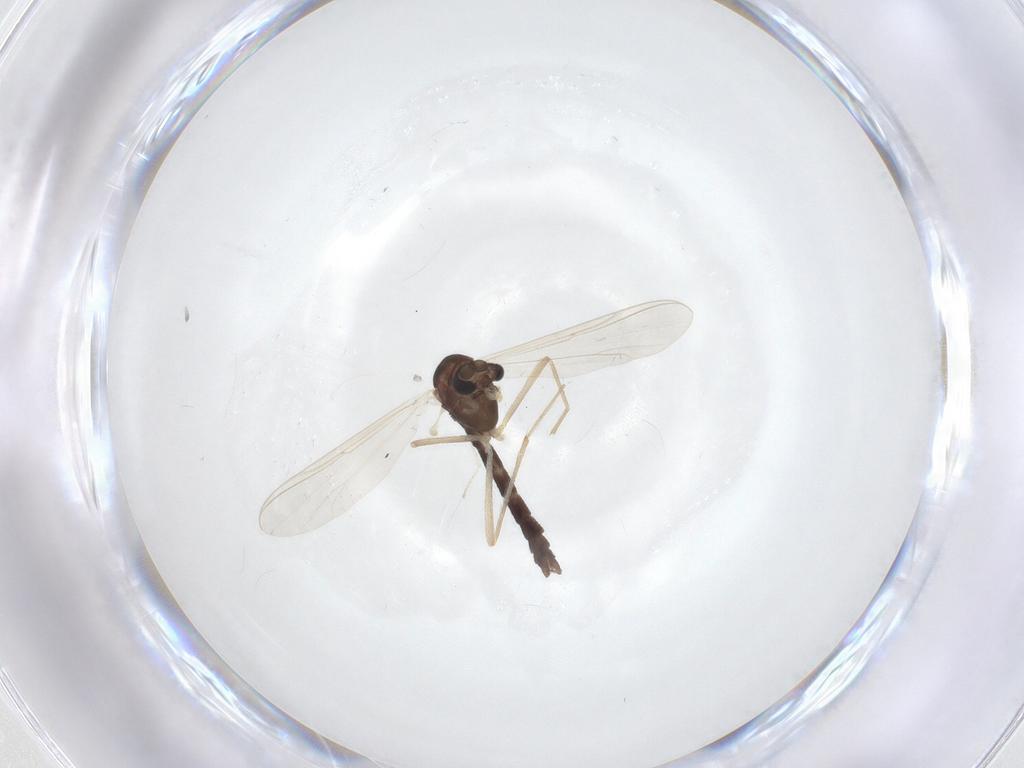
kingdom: Animalia
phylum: Arthropoda
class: Insecta
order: Diptera
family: Chironomidae
